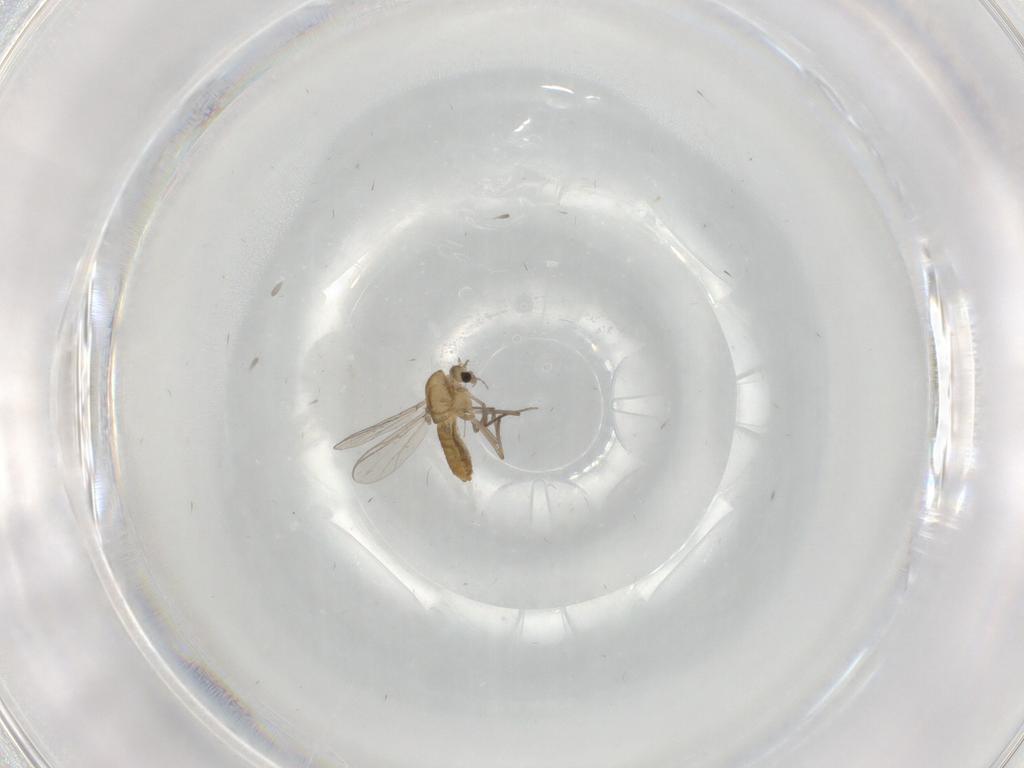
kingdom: Animalia
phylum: Arthropoda
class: Insecta
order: Diptera
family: Chironomidae
